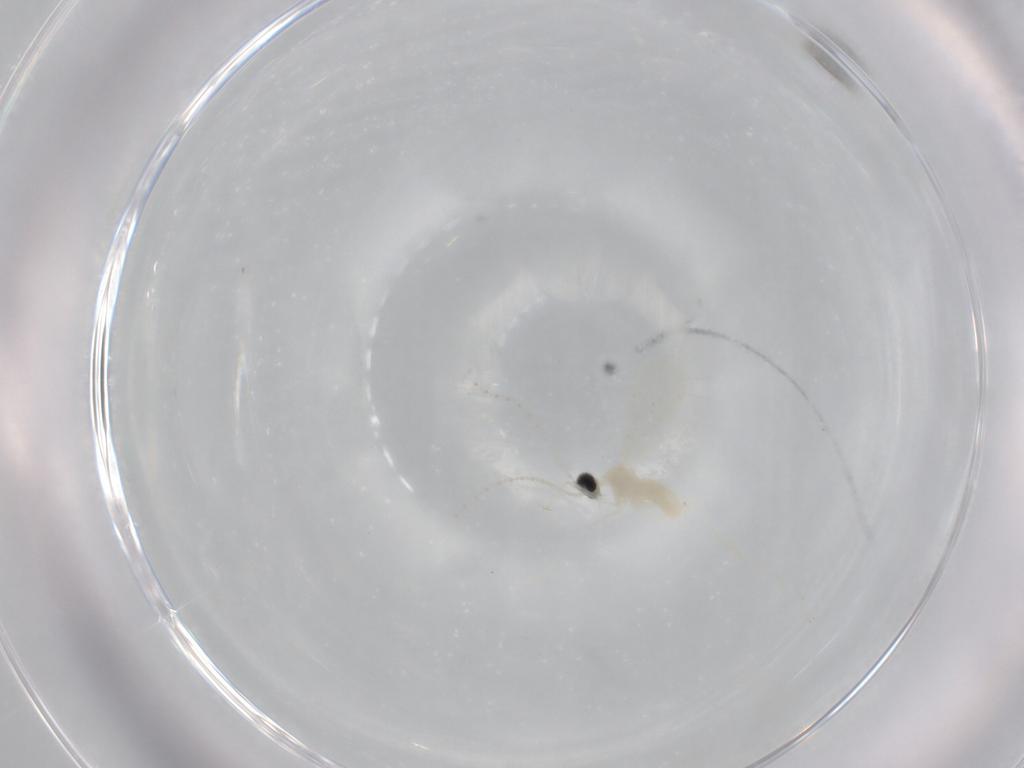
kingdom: Animalia
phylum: Arthropoda
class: Insecta
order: Diptera
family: Cecidomyiidae
